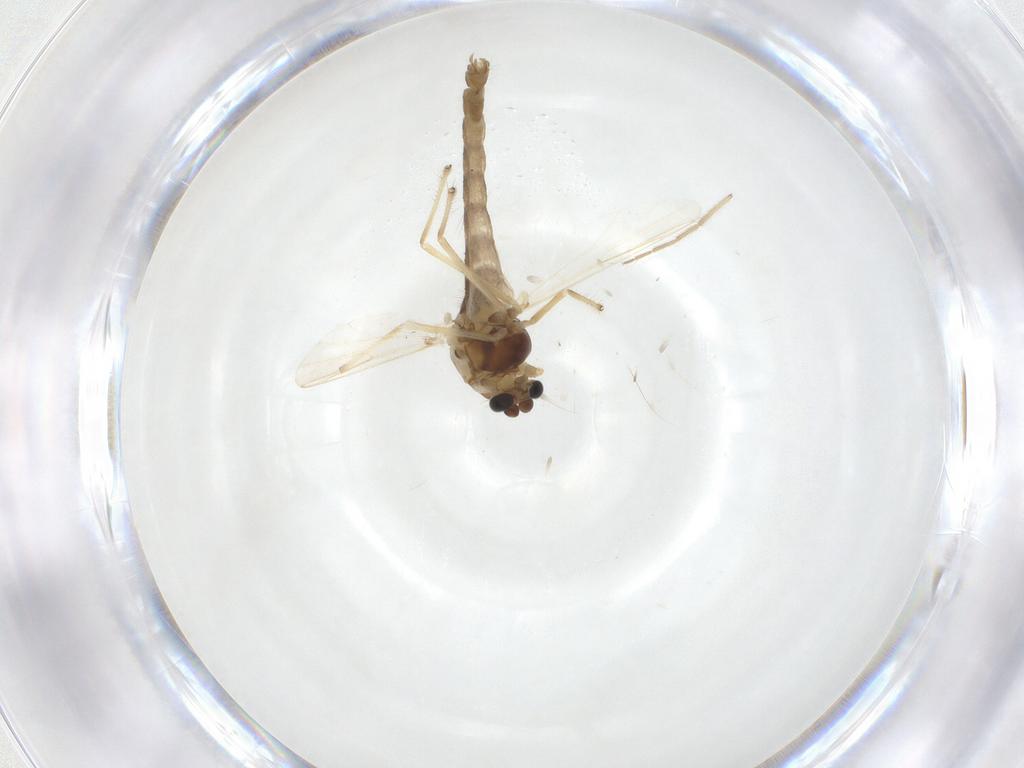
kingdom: Animalia
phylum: Arthropoda
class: Insecta
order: Diptera
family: Chironomidae
